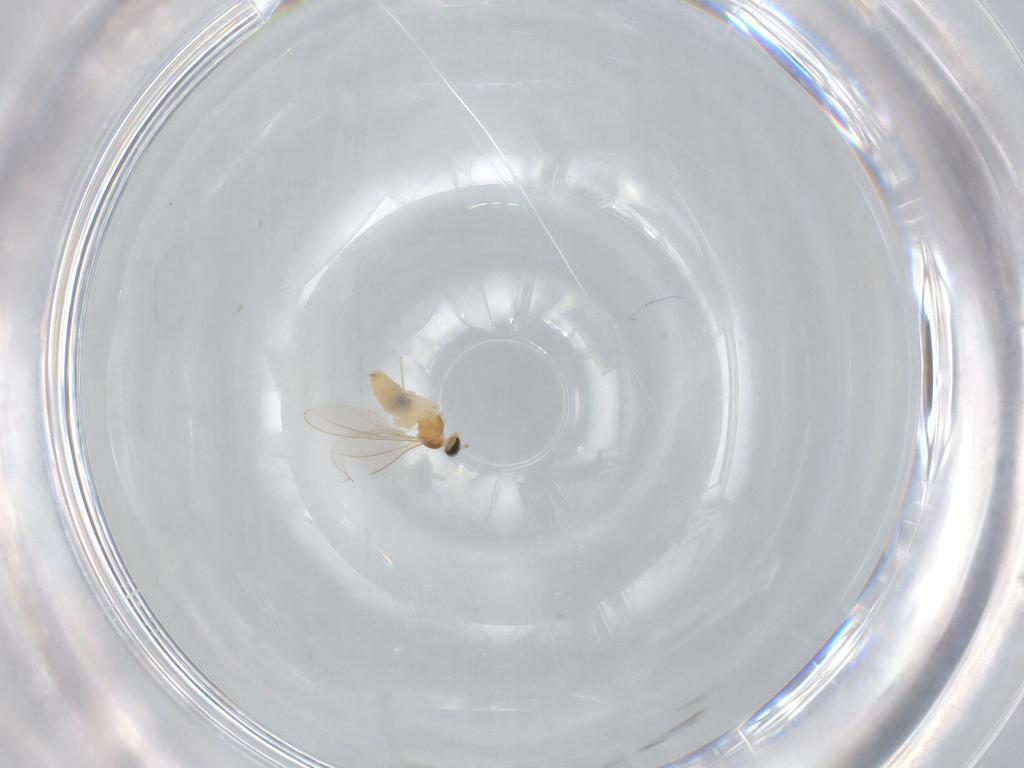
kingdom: Animalia
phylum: Arthropoda
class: Insecta
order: Diptera
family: Cecidomyiidae
